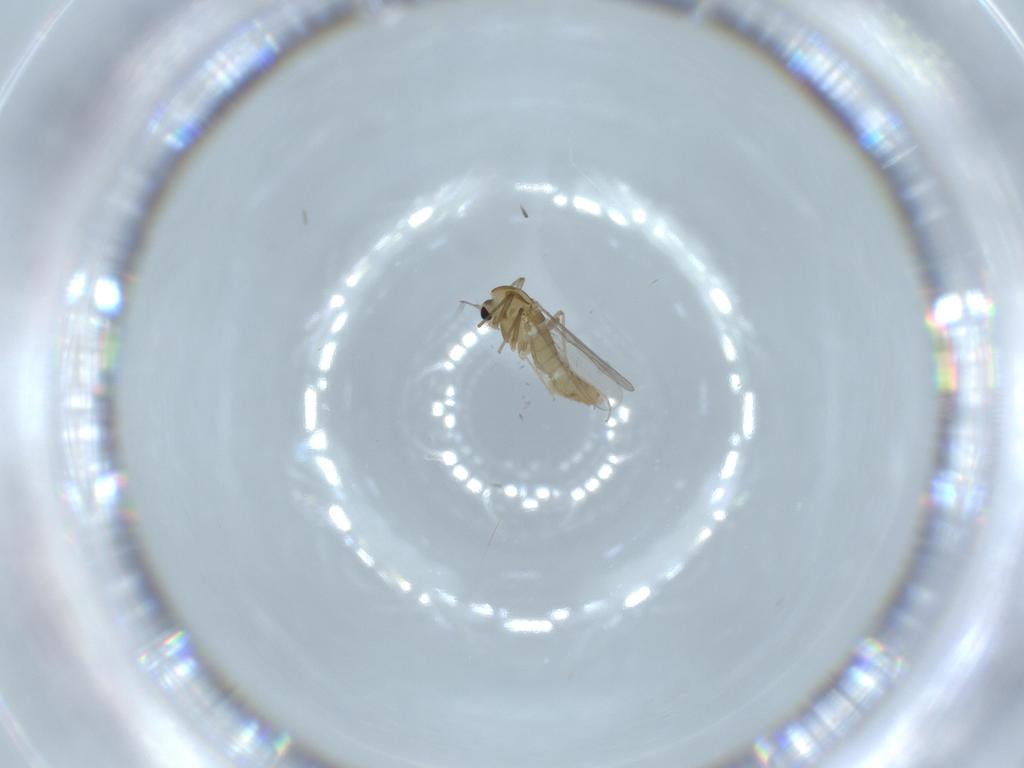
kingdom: Animalia
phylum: Arthropoda
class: Insecta
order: Diptera
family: Chironomidae
